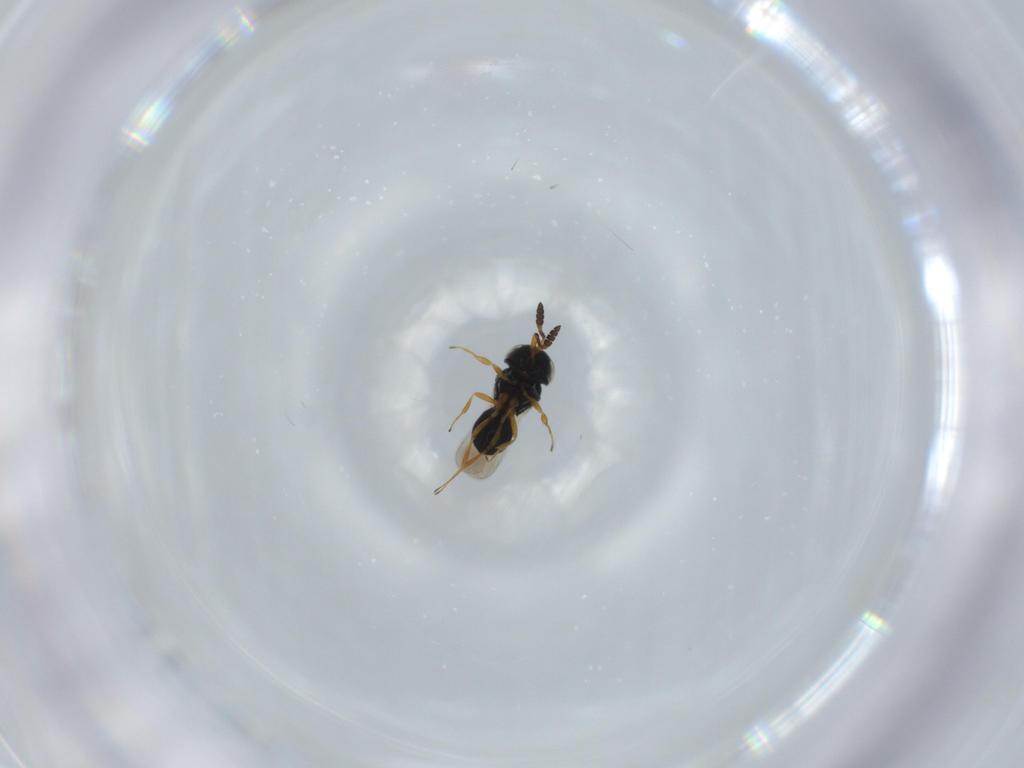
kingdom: Animalia
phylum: Arthropoda
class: Insecta
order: Hymenoptera
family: Scelionidae
